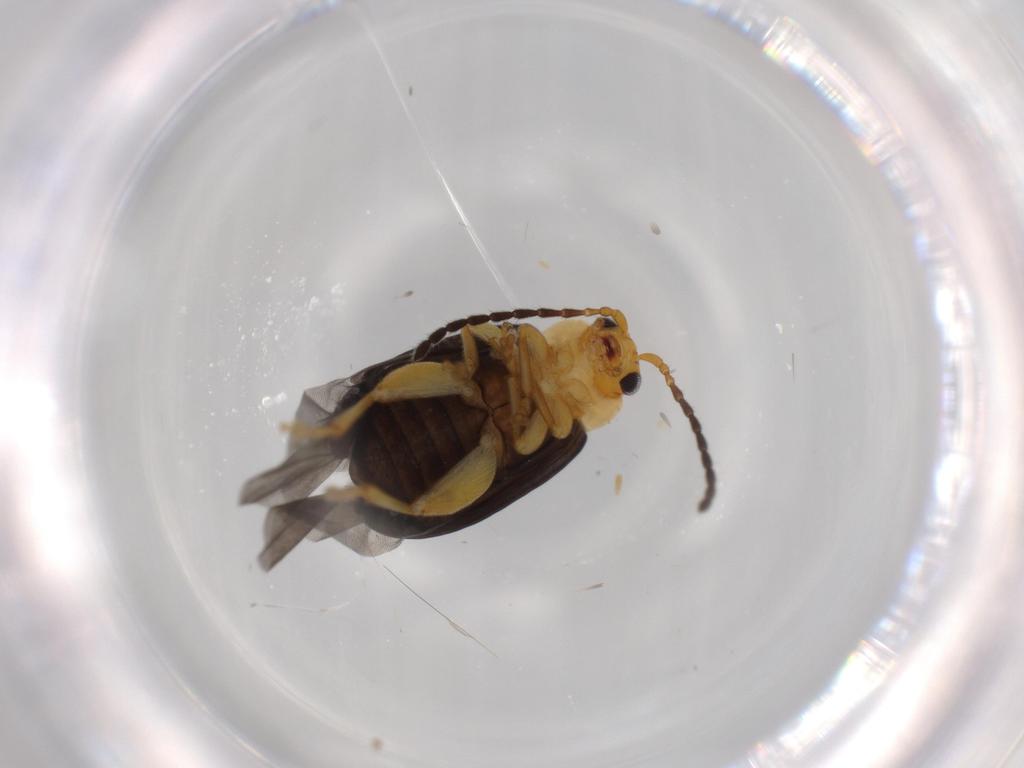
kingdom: Animalia
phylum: Arthropoda
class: Insecta
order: Coleoptera
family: Chrysomelidae
